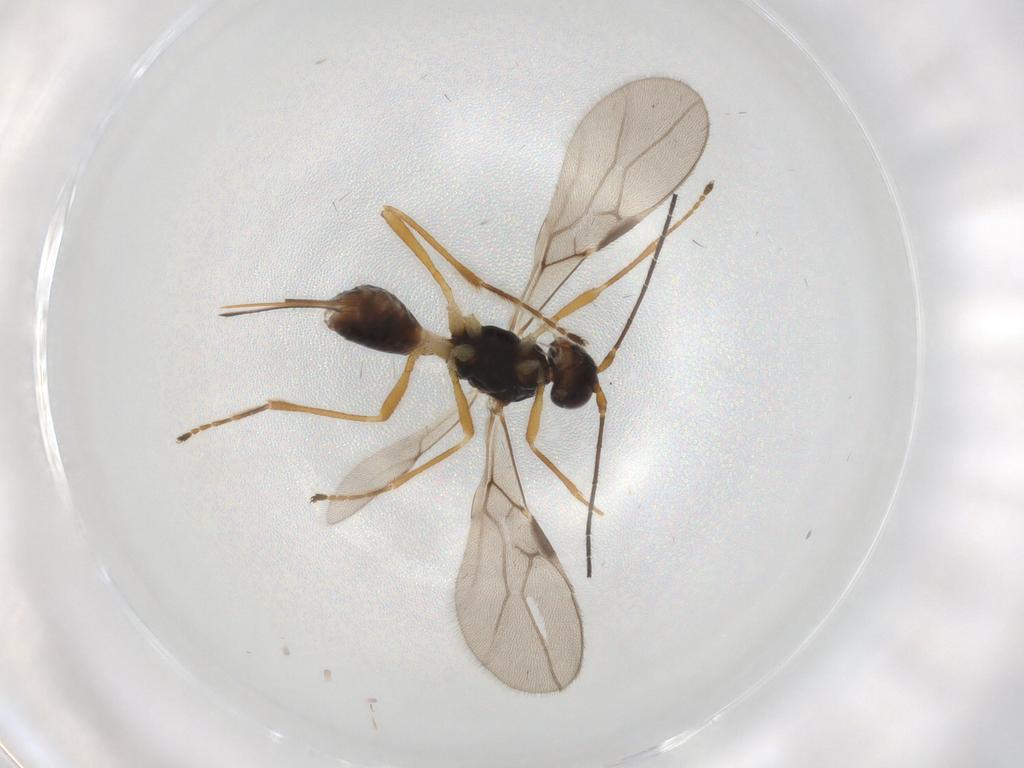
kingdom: Animalia
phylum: Arthropoda
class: Insecta
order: Hymenoptera
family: Braconidae
